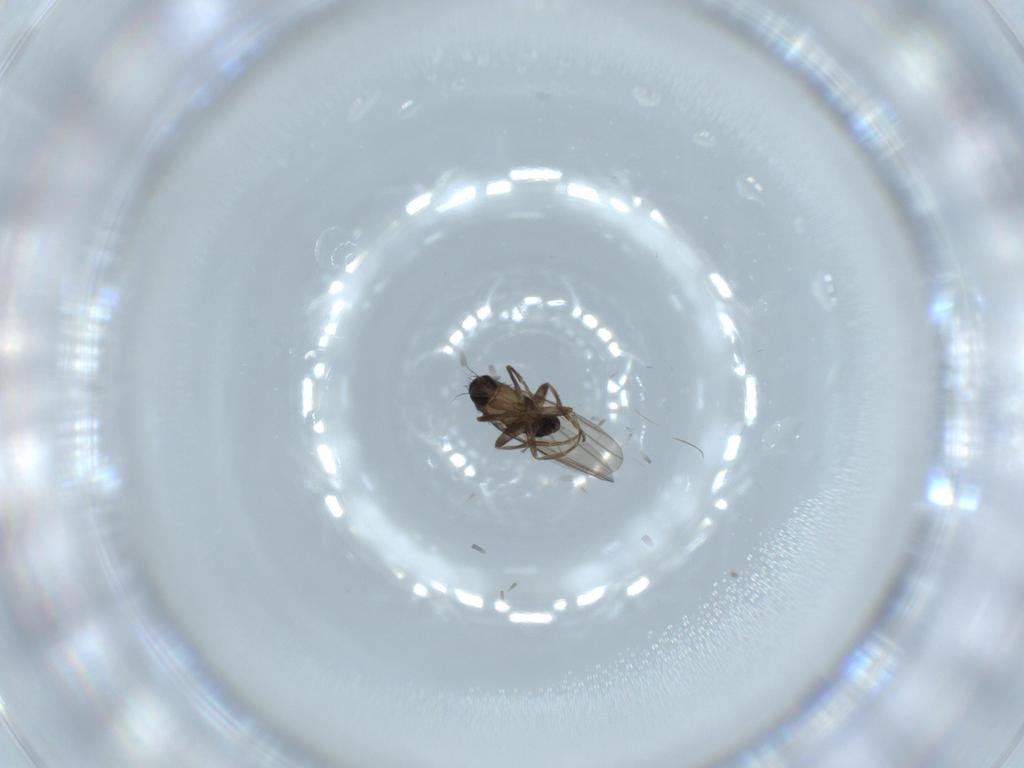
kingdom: Animalia
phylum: Arthropoda
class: Insecta
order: Diptera
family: Phoridae
